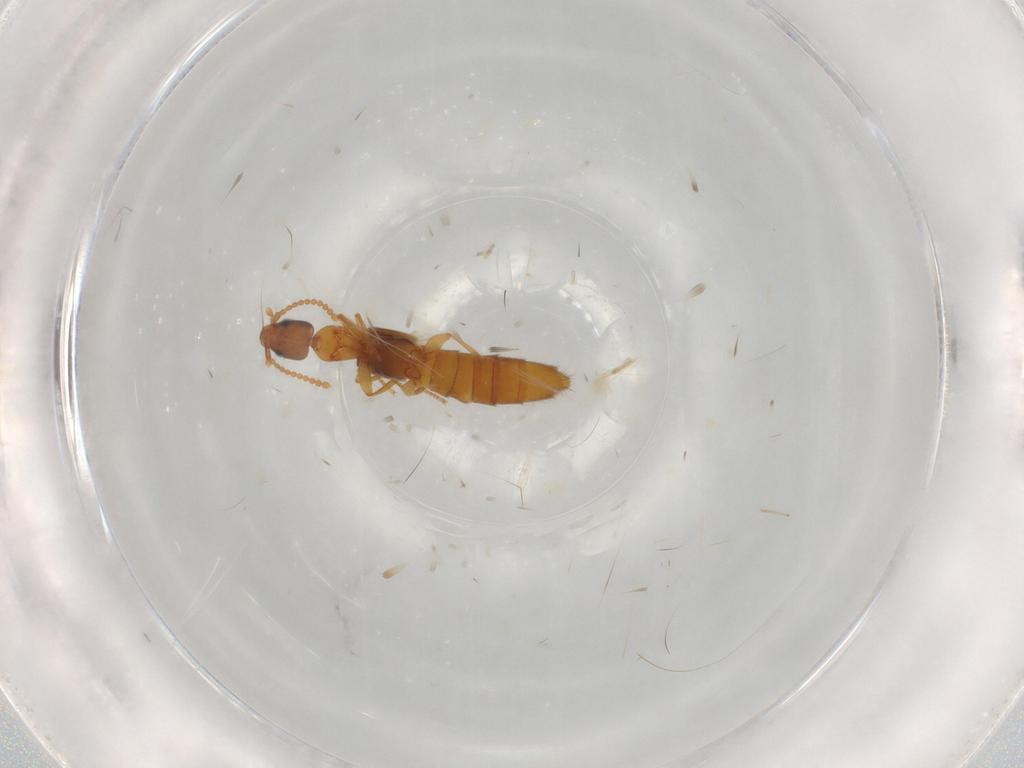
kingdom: Animalia
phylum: Arthropoda
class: Insecta
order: Coleoptera
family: Staphylinidae
